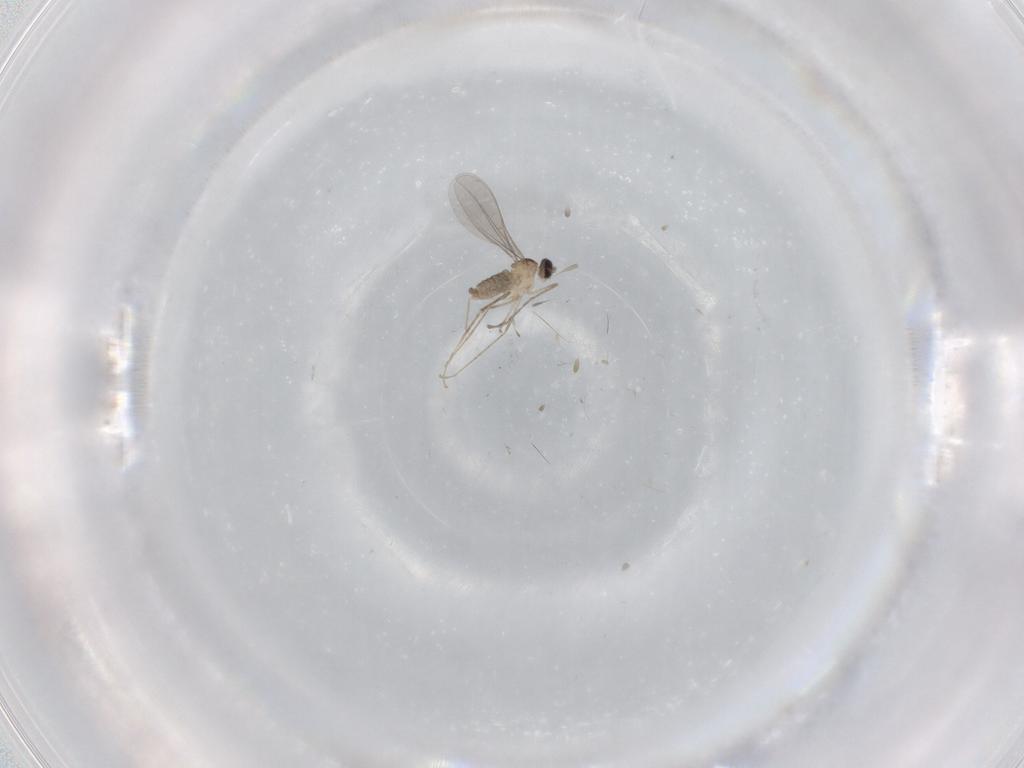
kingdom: Animalia
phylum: Arthropoda
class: Insecta
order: Diptera
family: Cecidomyiidae
